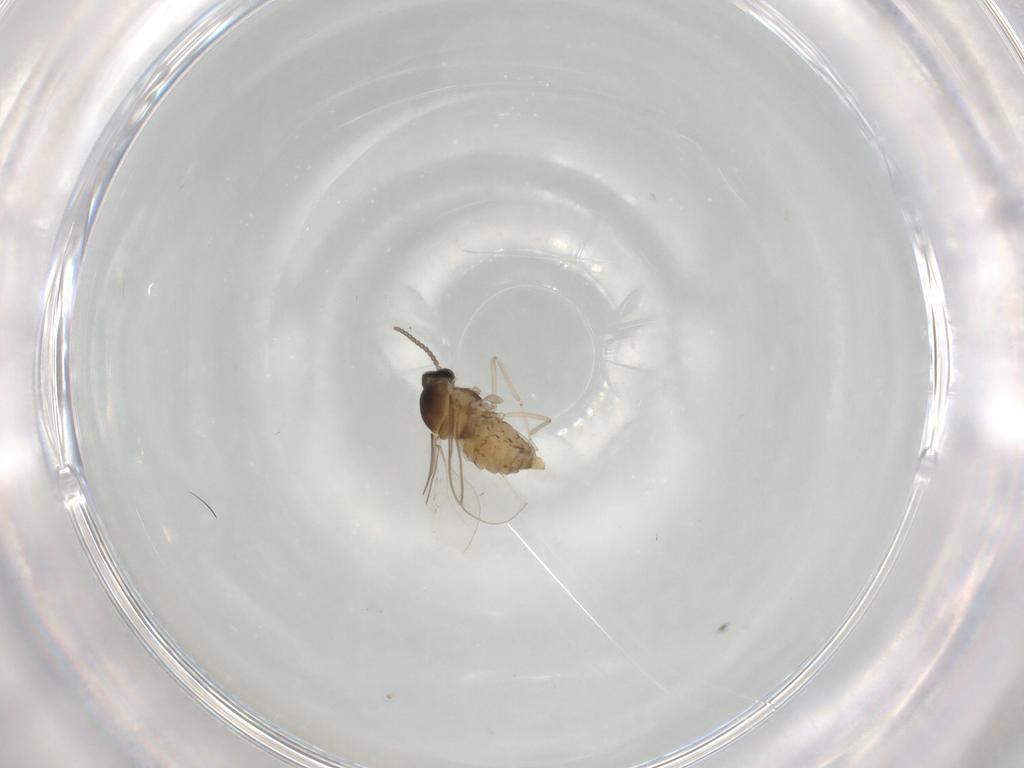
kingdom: Animalia
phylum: Arthropoda
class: Insecta
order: Diptera
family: Cecidomyiidae
